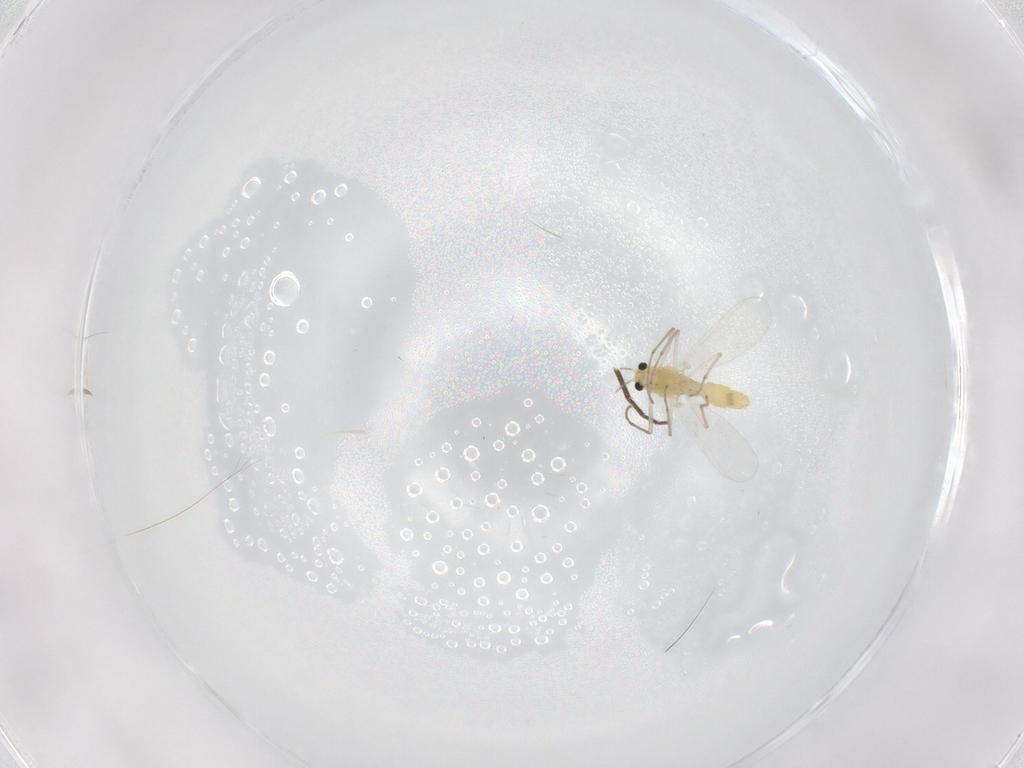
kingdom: Animalia
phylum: Arthropoda
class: Insecta
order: Diptera
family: Chironomidae
